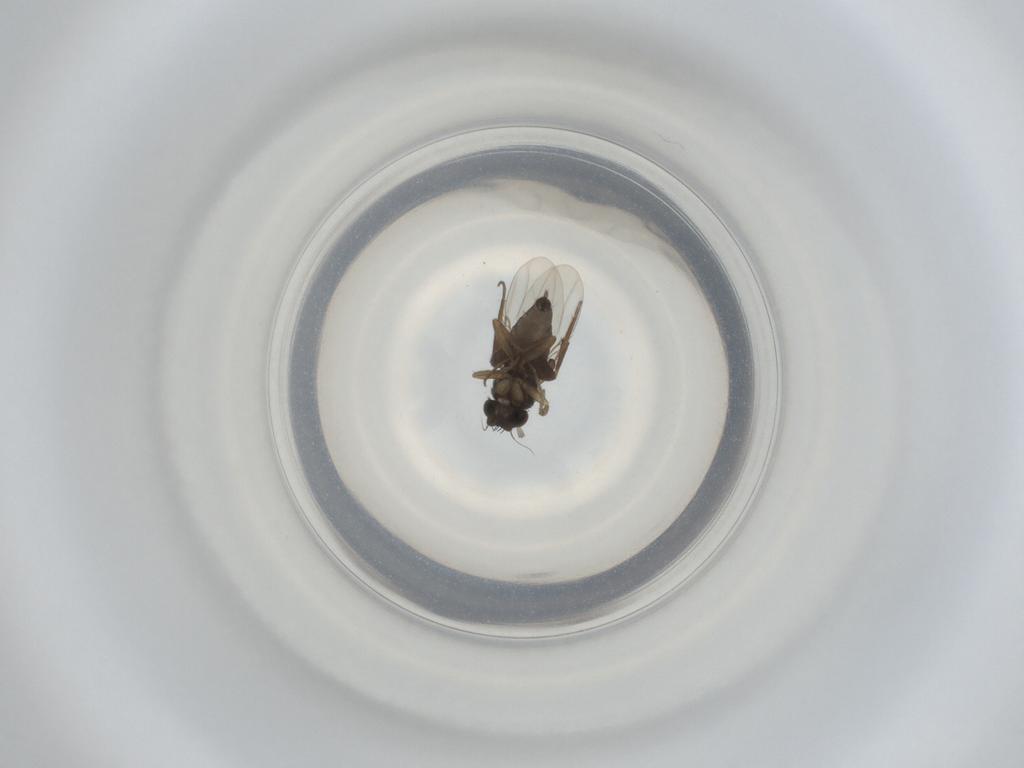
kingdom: Animalia
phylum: Arthropoda
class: Insecta
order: Diptera
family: Phoridae
